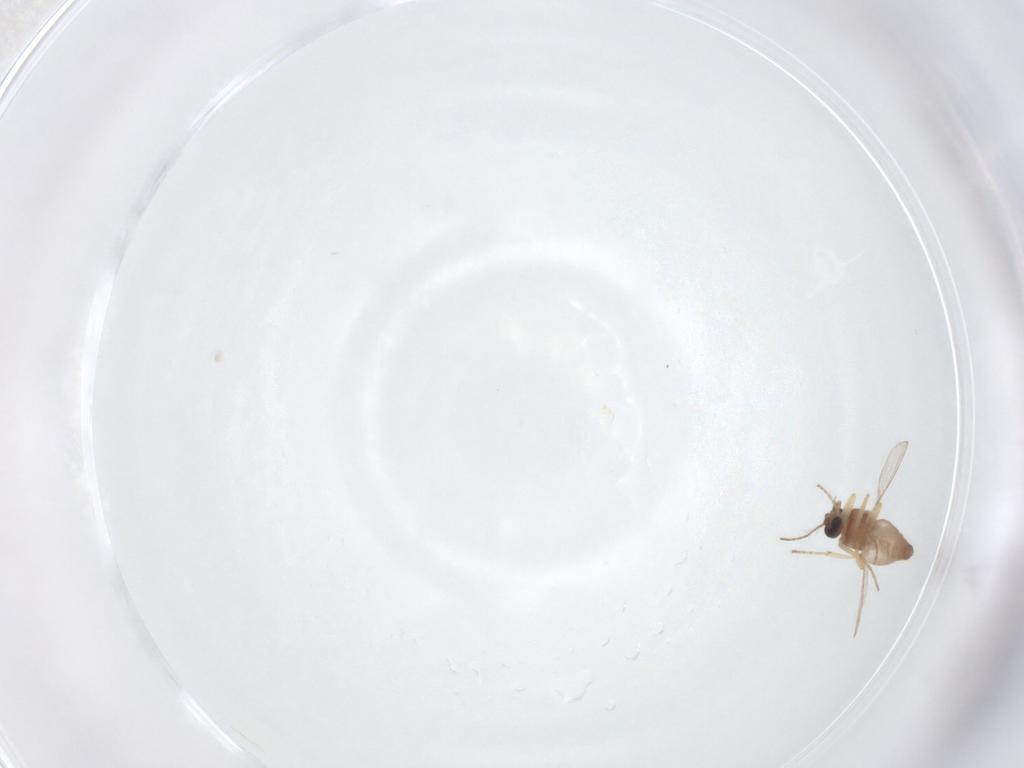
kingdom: Animalia
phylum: Arthropoda
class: Insecta
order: Diptera
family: Ceratopogonidae
